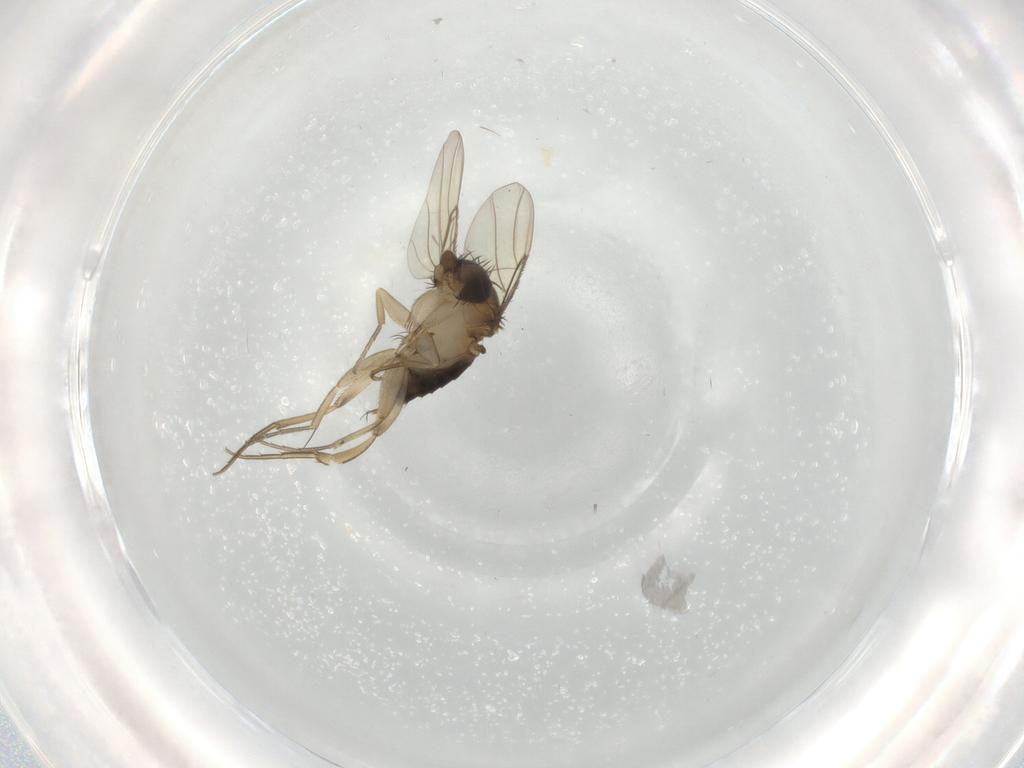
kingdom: Animalia
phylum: Arthropoda
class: Insecta
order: Diptera
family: Phoridae
